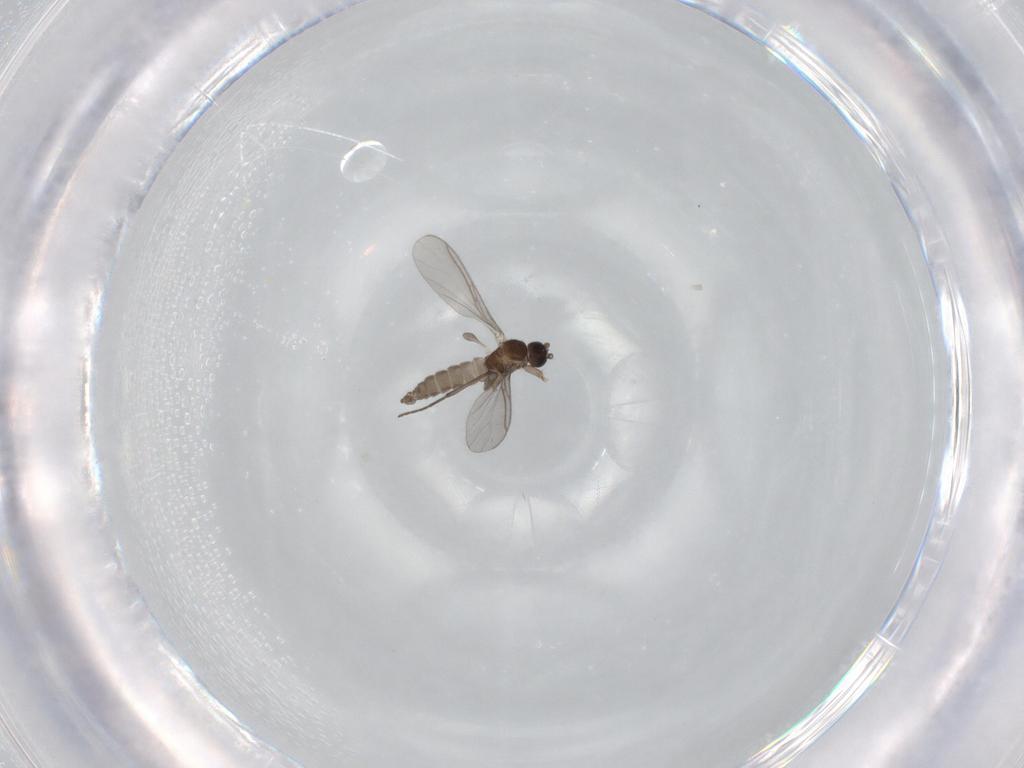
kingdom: Animalia
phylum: Arthropoda
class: Insecta
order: Diptera
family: Sciaridae
